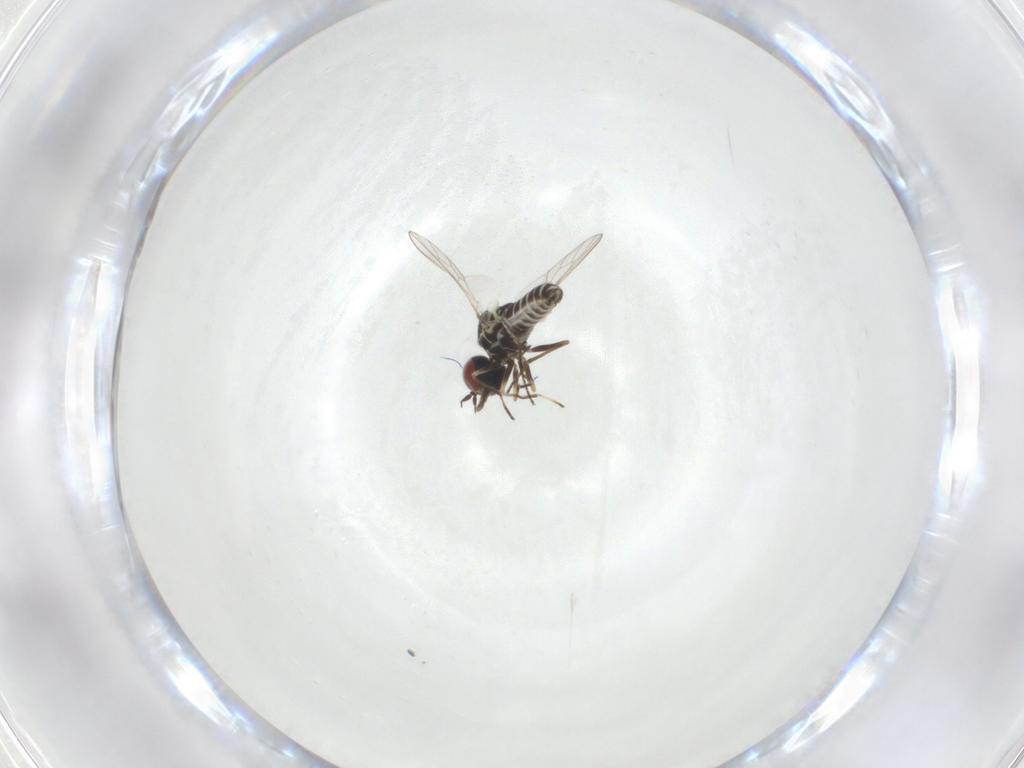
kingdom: Animalia
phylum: Arthropoda
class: Insecta
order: Diptera
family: Mythicomyiidae
